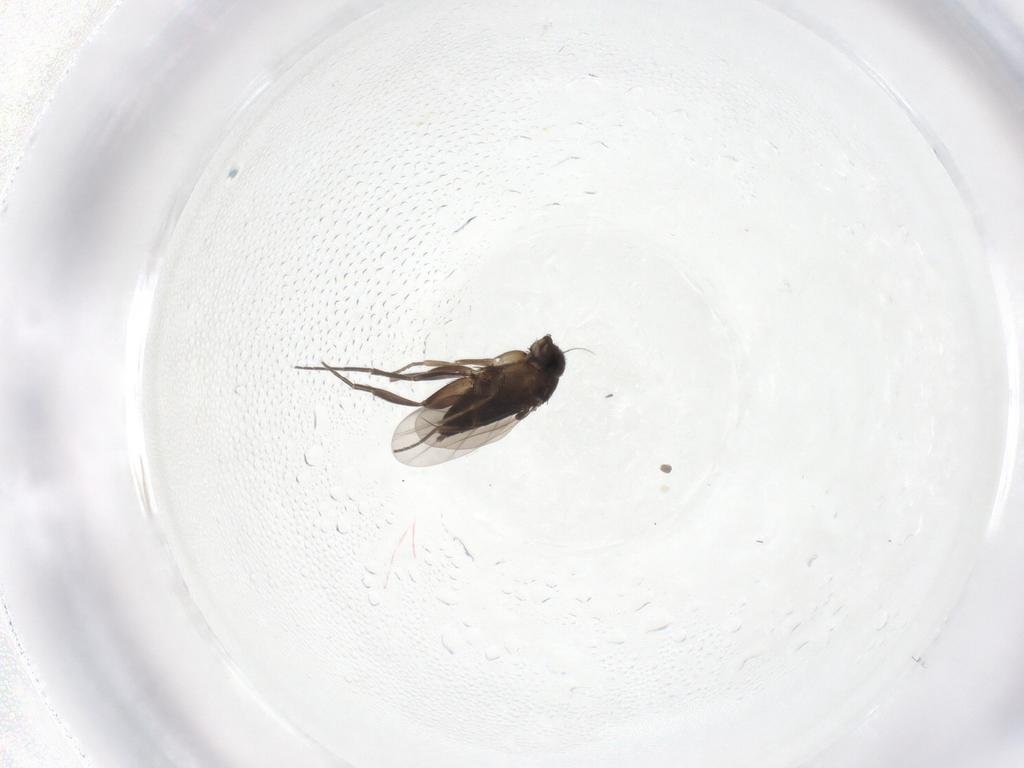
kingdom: Animalia
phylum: Arthropoda
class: Insecta
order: Diptera
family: Phoridae
